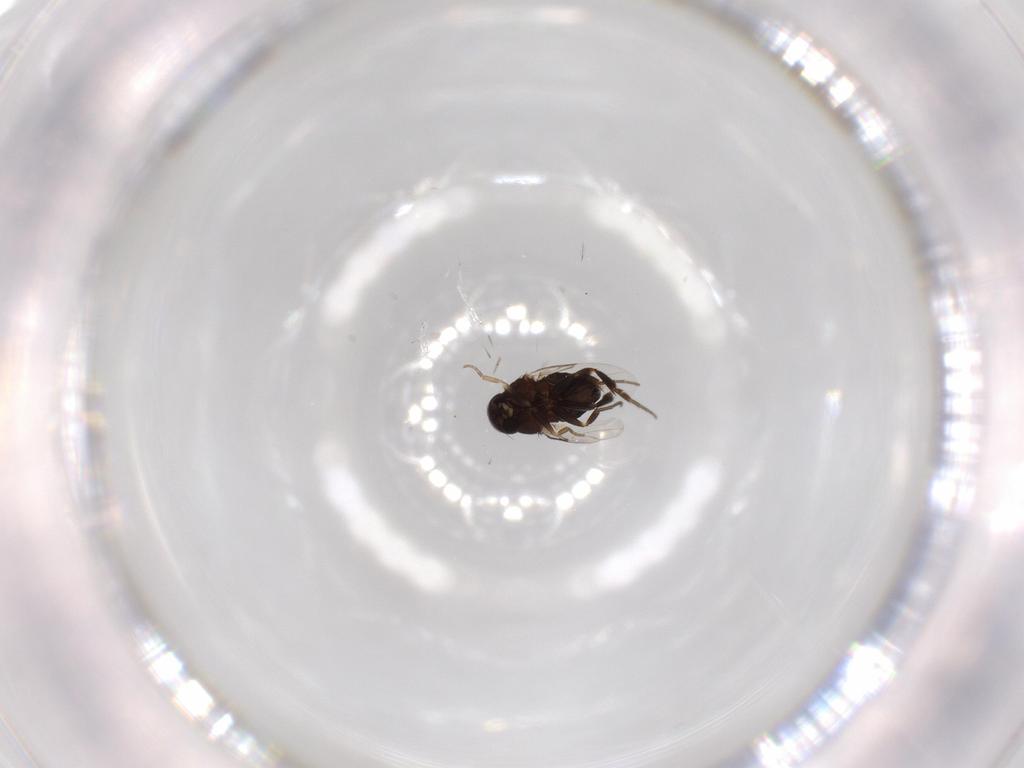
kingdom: Animalia
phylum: Arthropoda
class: Insecta
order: Diptera
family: Phoridae
